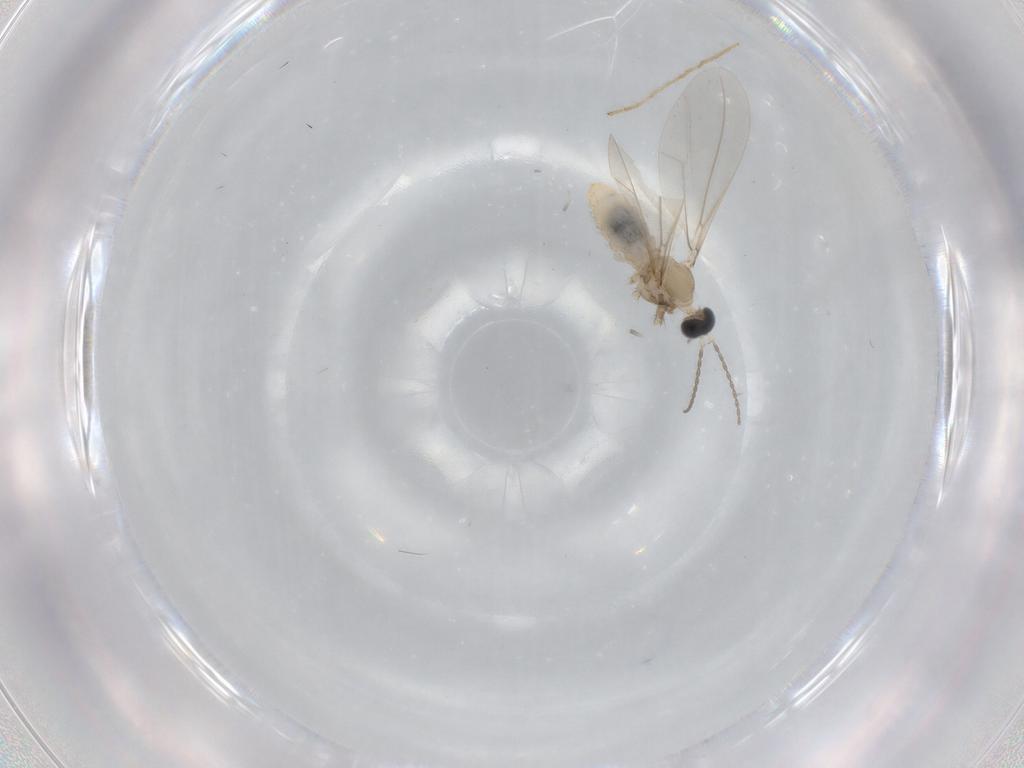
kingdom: Animalia
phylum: Arthropoda
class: Insecta
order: Diptera
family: Cecidomyiidae
